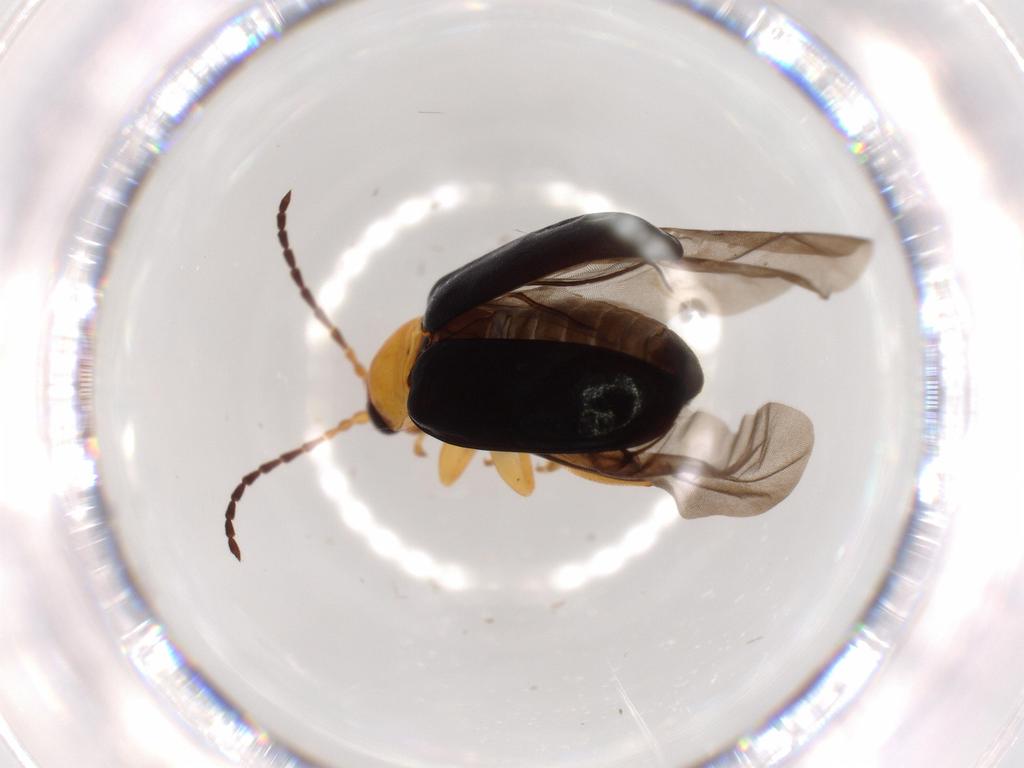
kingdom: Animalia
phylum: Arthropoda
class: Insecta
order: Coleoptera
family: Chrysomelidae
